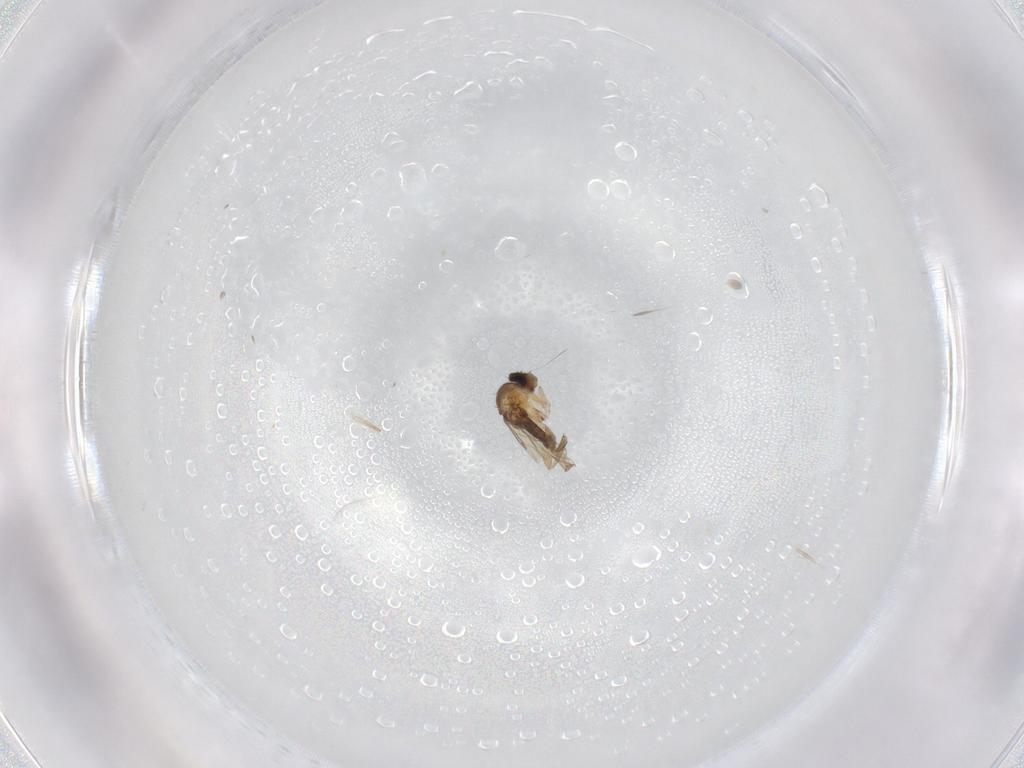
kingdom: Animalia
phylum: Arthropoda
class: Insecta
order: Diptera
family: Phoridae
